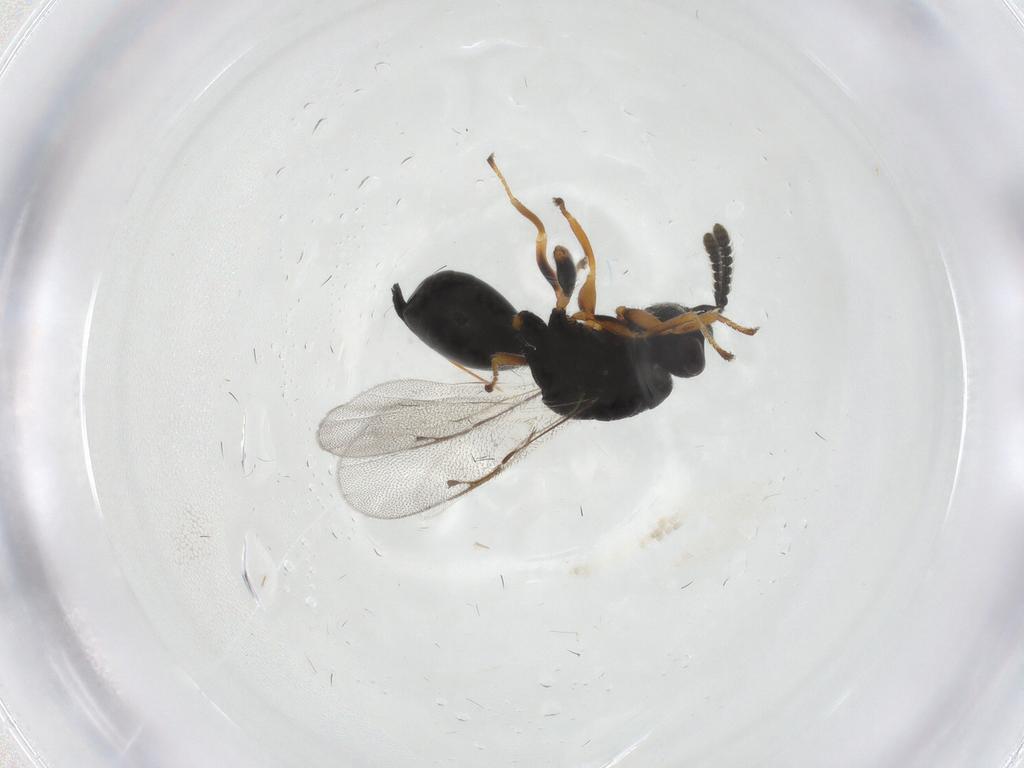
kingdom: Animalia
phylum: Arthropoda
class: Insecta
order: Hymenoptera
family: Eurytomidae
